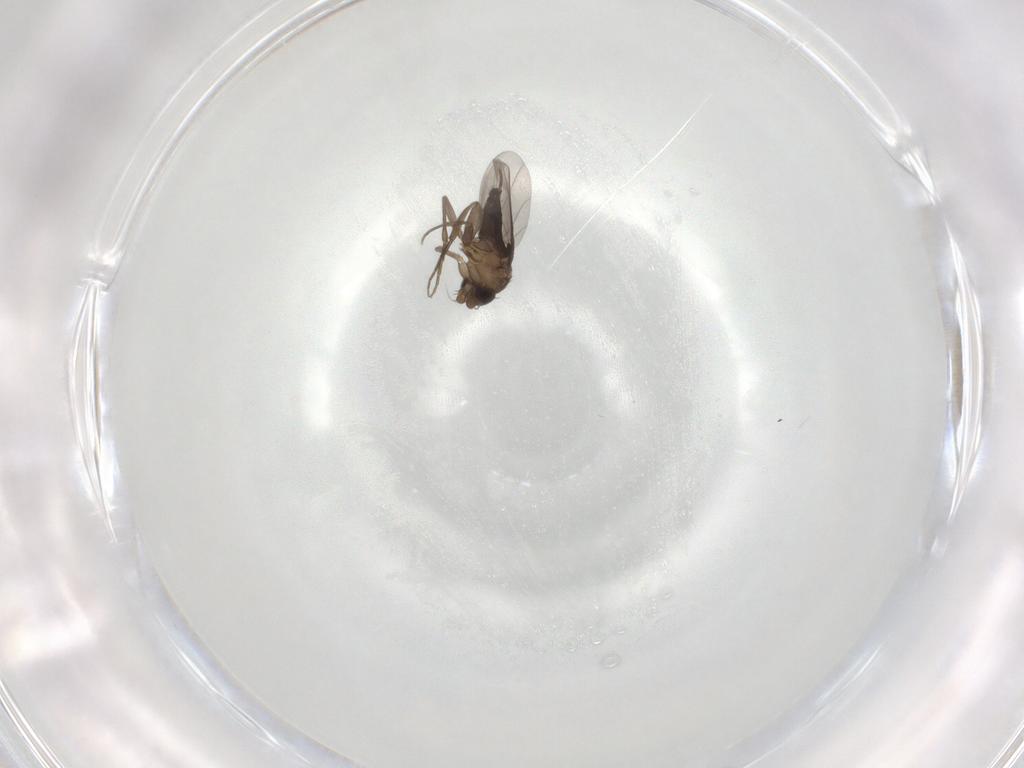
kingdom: Animalia
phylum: Arthropoda
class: Insecta
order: Diptera
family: Phoridae
